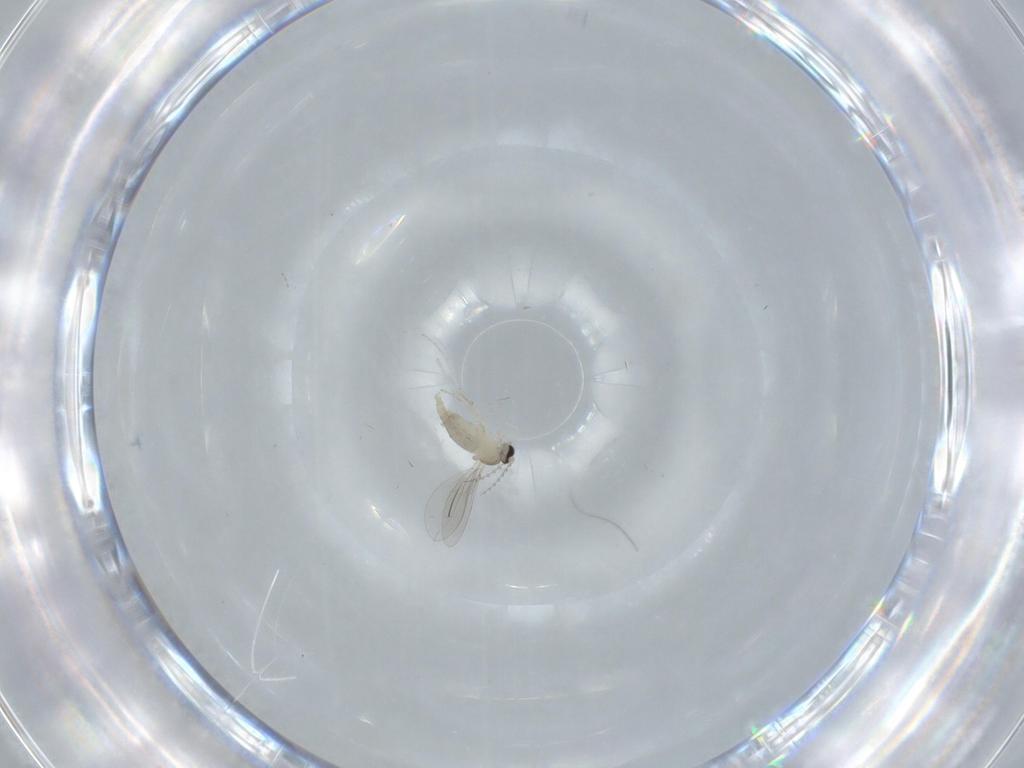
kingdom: Animalia
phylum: Arthropoda
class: Insecta
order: Diptera
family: Cecidomyiidae
